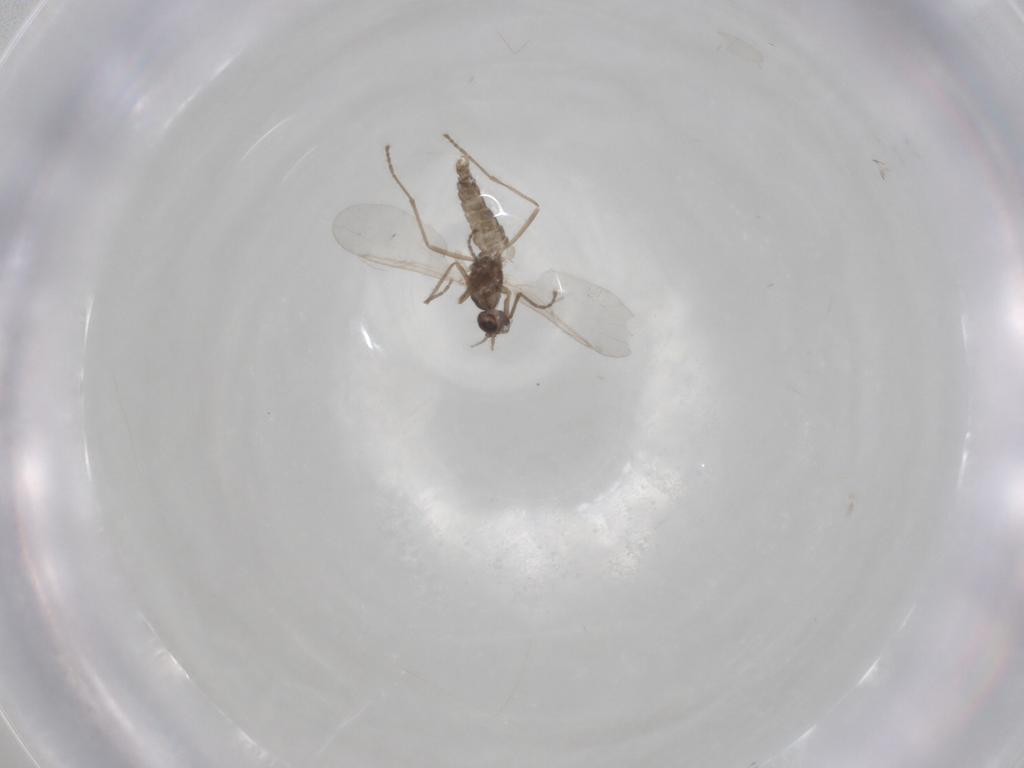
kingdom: Animalia
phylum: Arthropoda
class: Insecta
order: Diptera
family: Cecidomyiidae
